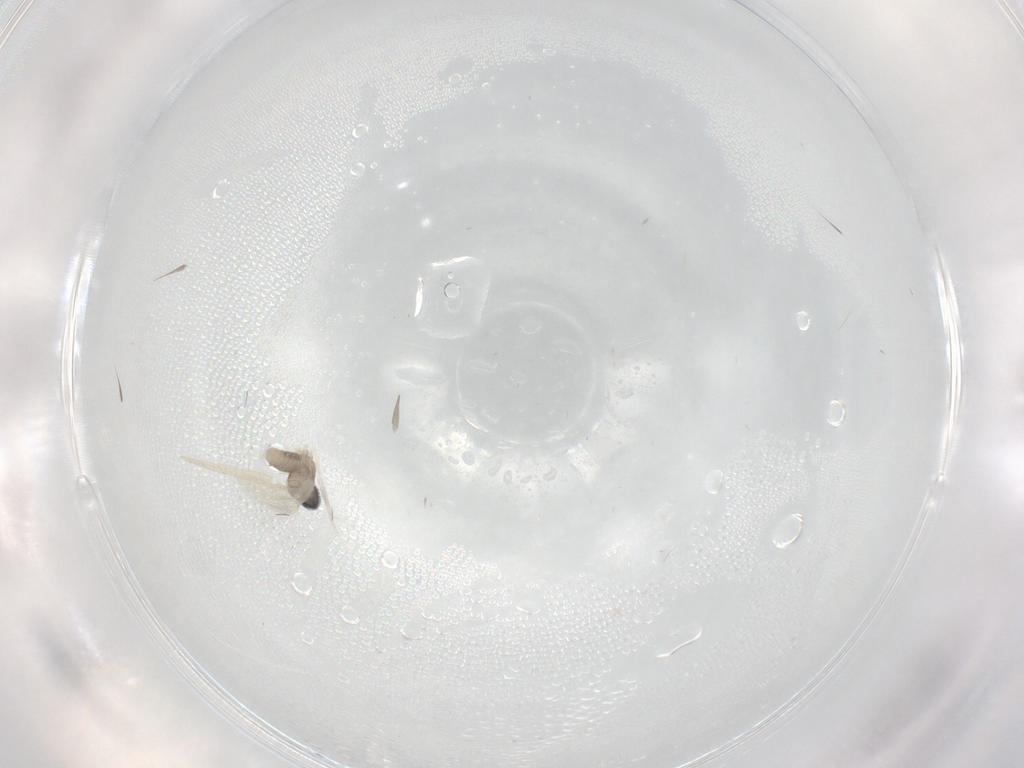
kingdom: Animalia
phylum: Arthropoda
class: Insecta
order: Diptera
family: Cecidomyiidae
